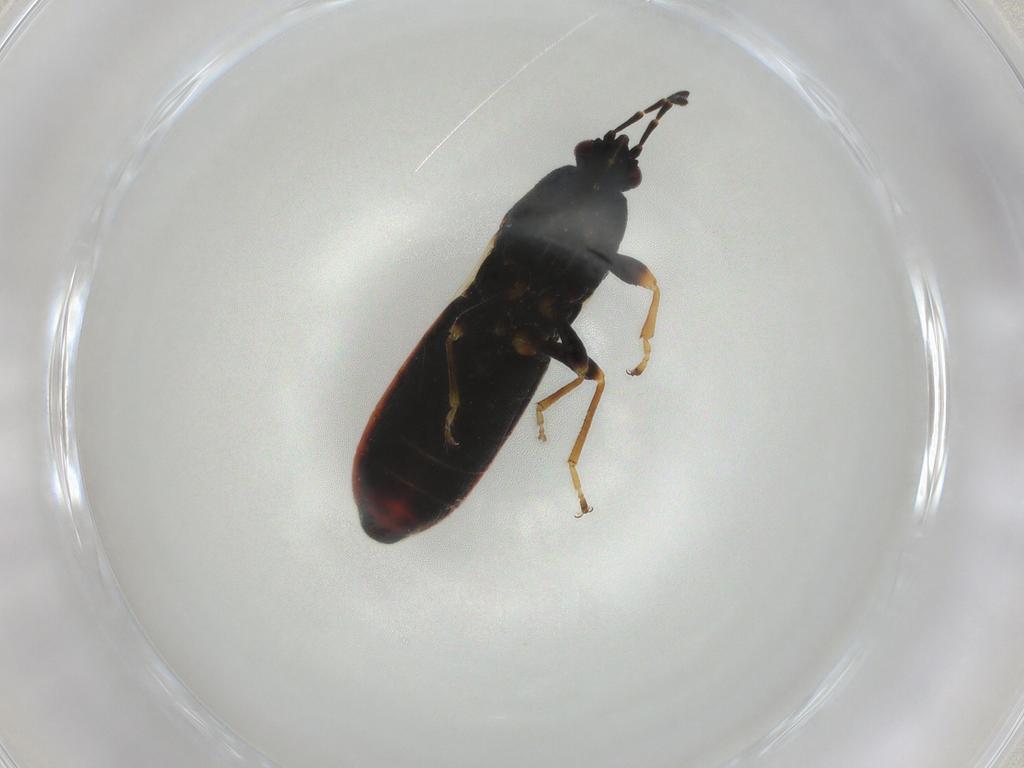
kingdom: Animalia
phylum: Arthropoda
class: Insecta
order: Hemiptera
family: Blissidae
